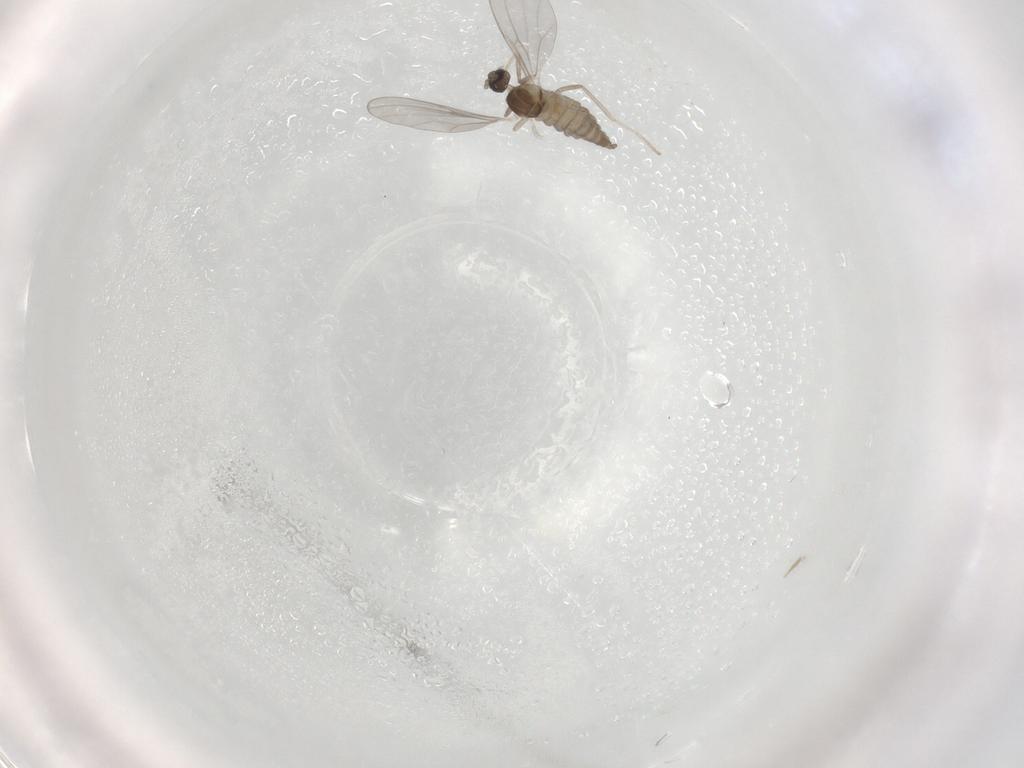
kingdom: Animalia
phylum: Arthropoda
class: Insecta
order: Diptera
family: Cecidomyiidae
